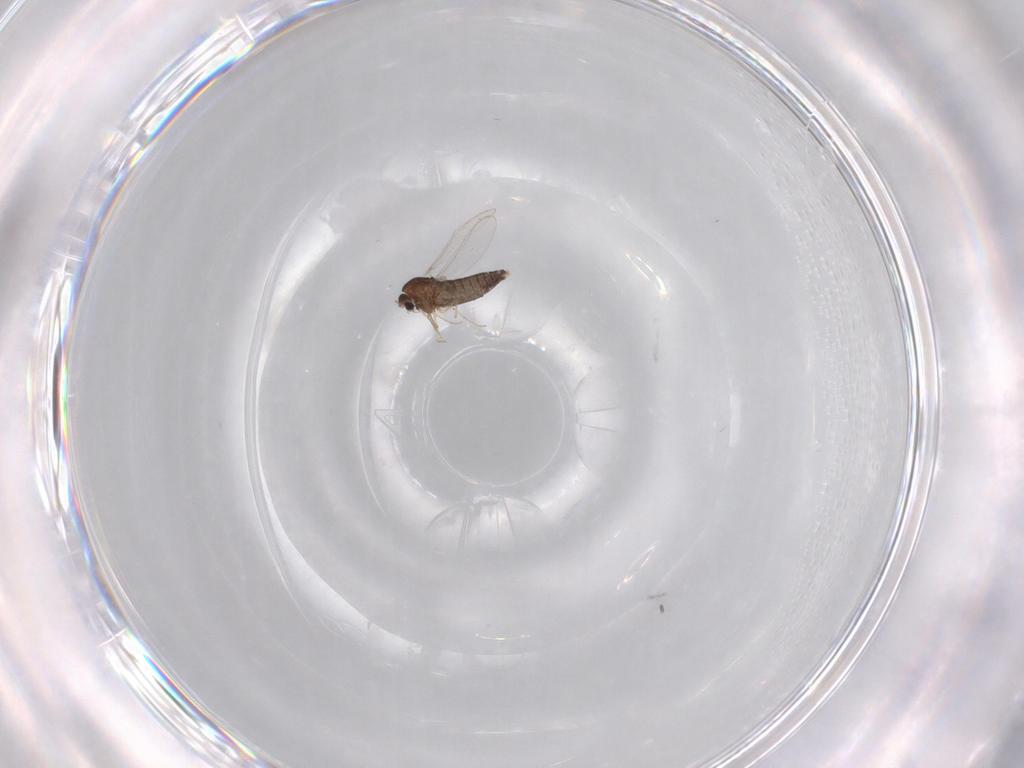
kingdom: Animalia
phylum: Arthropoda
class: Insecta
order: Diptera
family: Chironomidae
